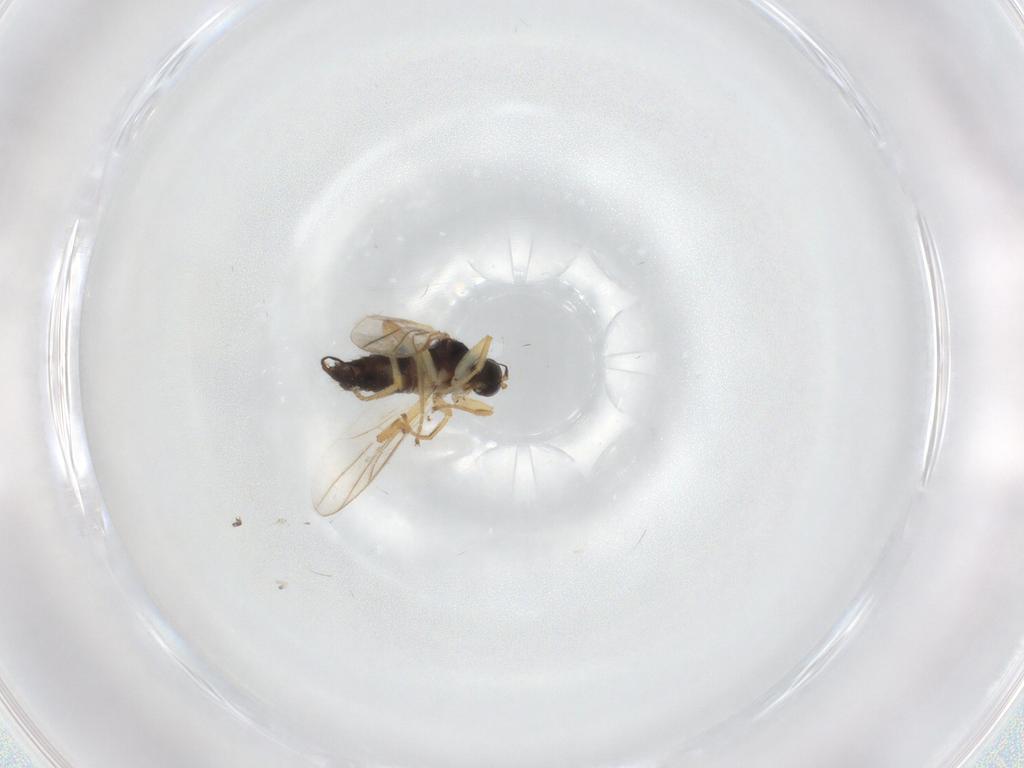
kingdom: Animalia
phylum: Arthropoda
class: Insecta
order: Diptera
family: Hybotidae
